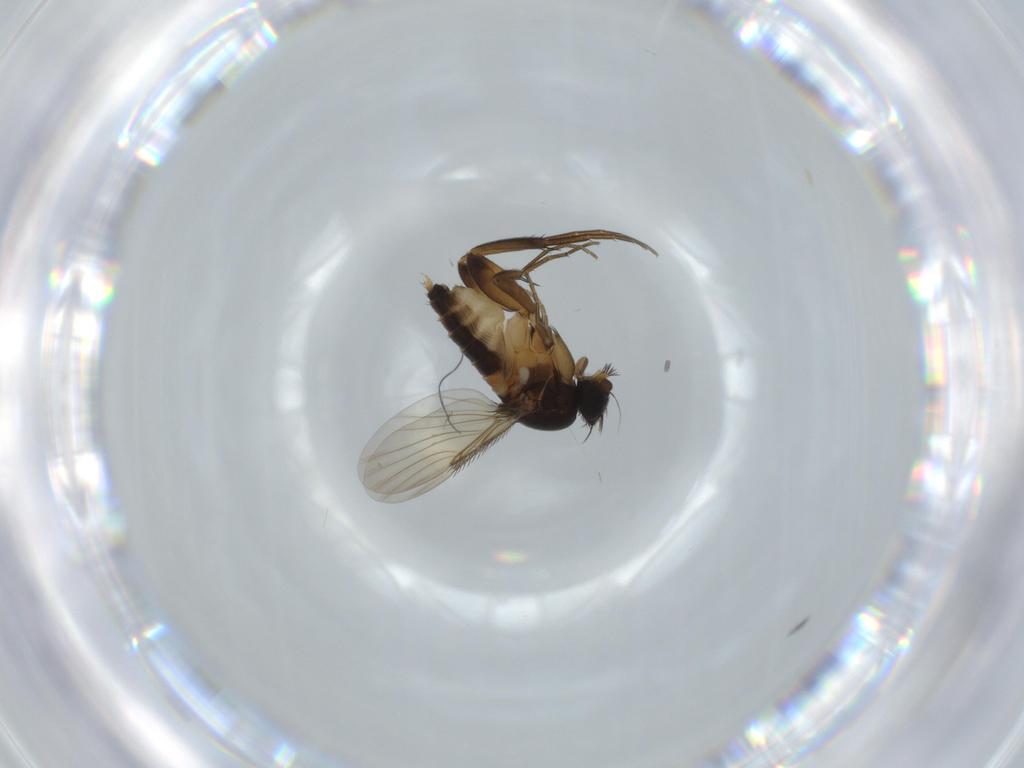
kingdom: Animalia
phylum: Arthropoda
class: Insecta
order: Diptera
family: Phoridae
